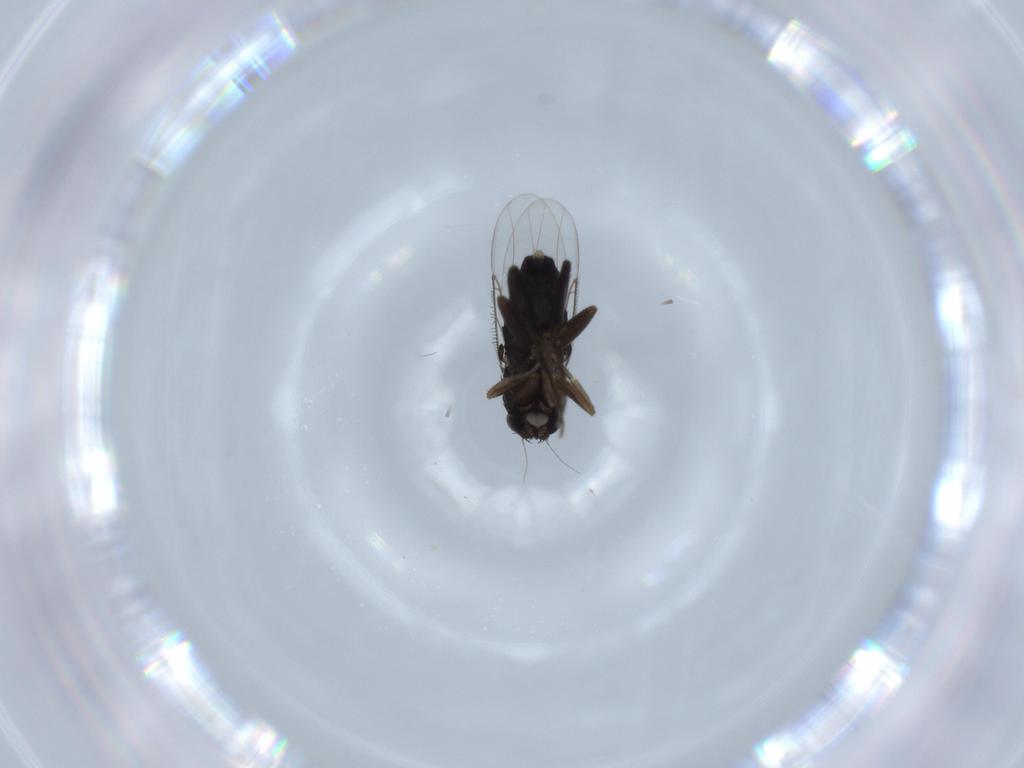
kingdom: Animalia
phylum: Arthropoda
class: Insecta
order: Diptera
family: Phoridae
